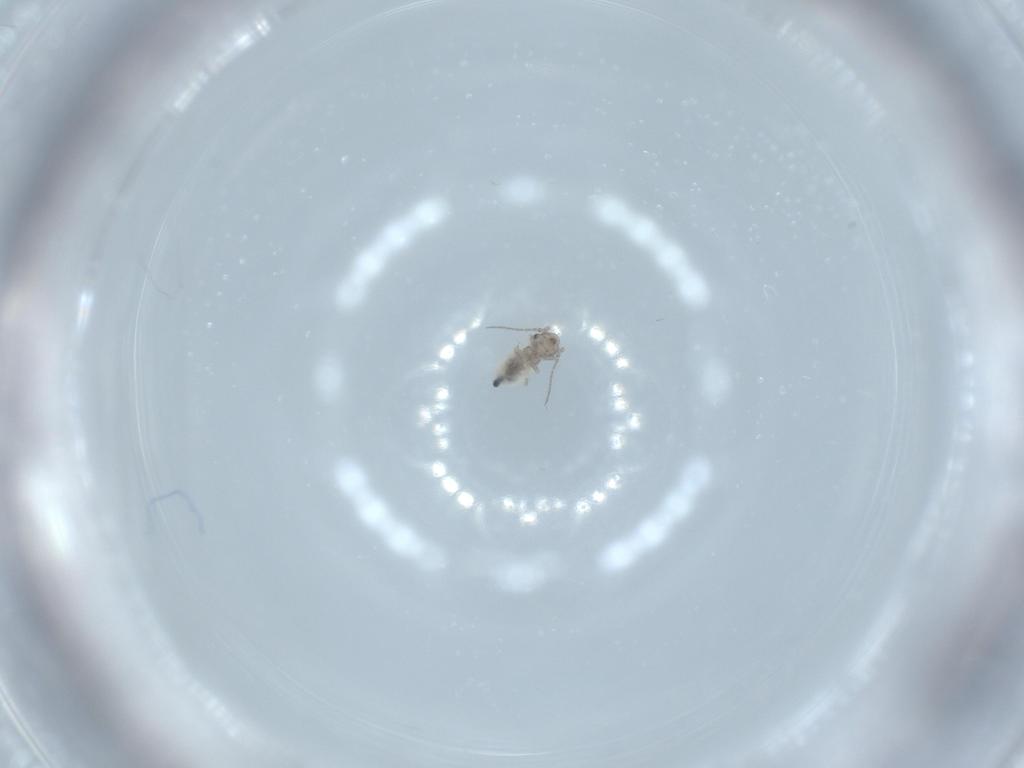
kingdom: Animalia
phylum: Arthropoda
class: Insecta
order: Psocodea
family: Lepidopsocidae
